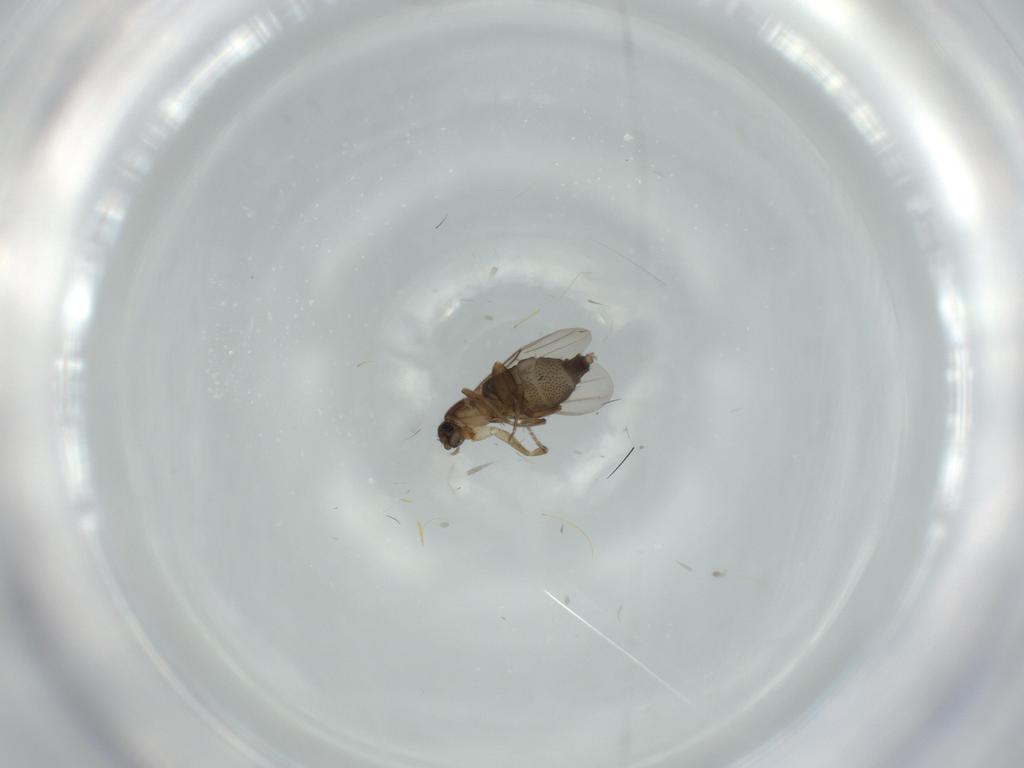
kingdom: Animalia
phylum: Arthropoda
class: Insecta
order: Diptera
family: Phoridae
